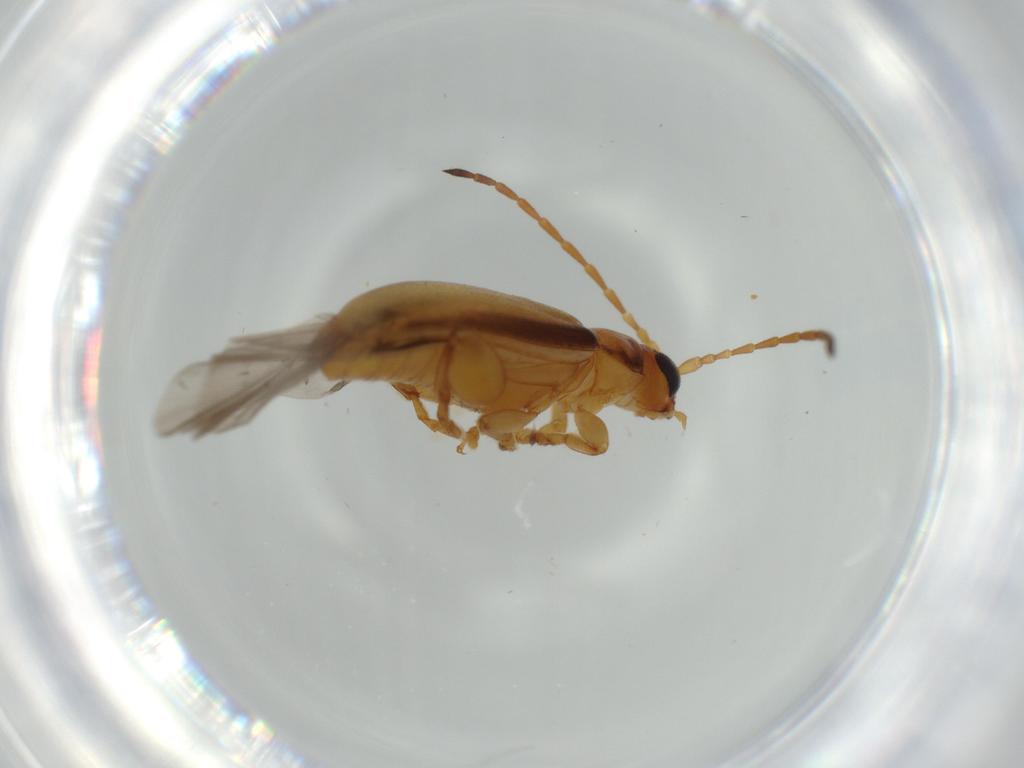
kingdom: Animalia
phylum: Arthropoda
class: Insecta
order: Coleoptera
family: Chrysomelidae
